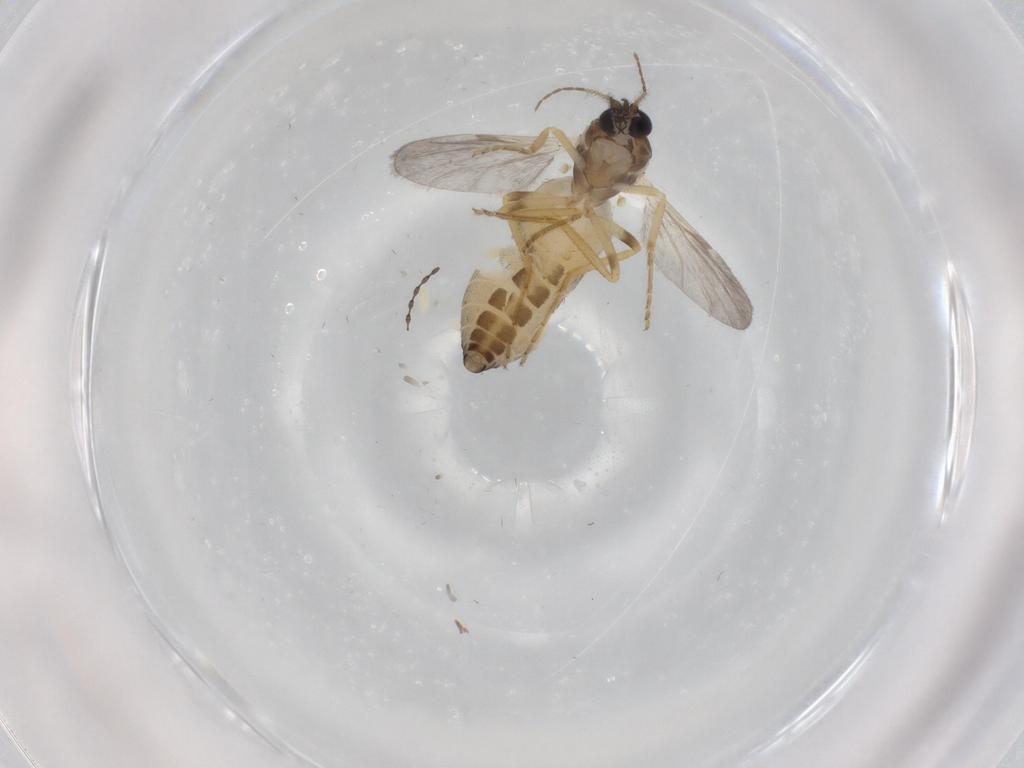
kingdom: Animalia
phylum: Arthropoda
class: Insecta
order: Diptera
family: Ceratopogonidae
